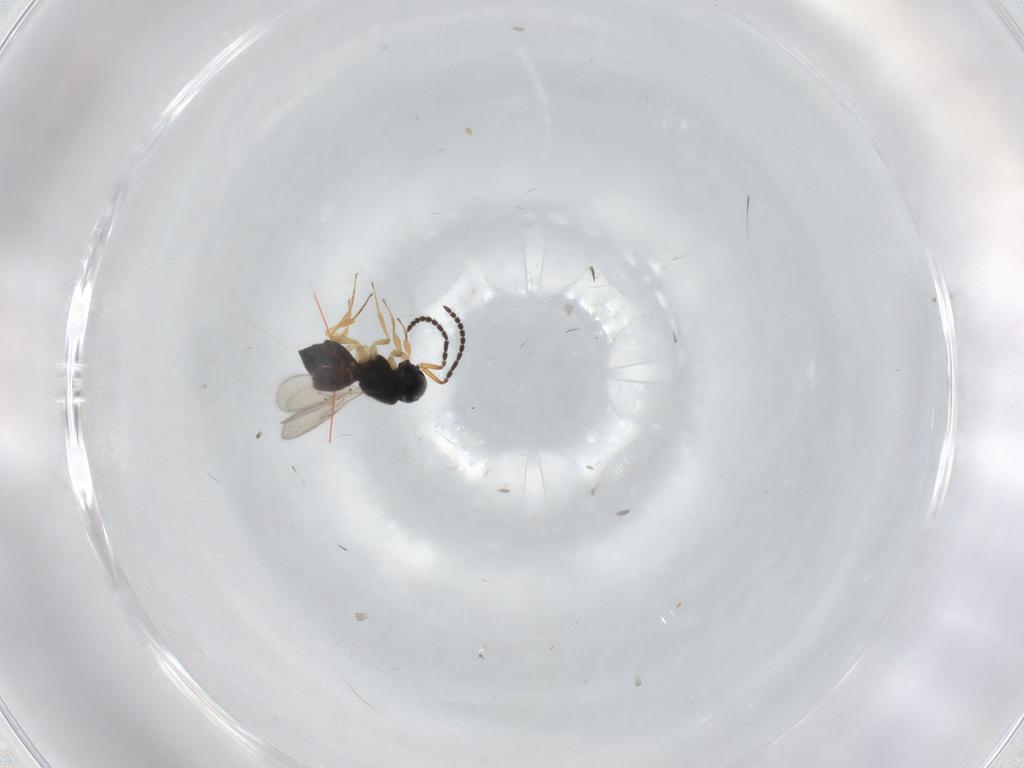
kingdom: Animalia
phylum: Arthropoda
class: Insecta
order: Hymenoptera
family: Scelionidae
